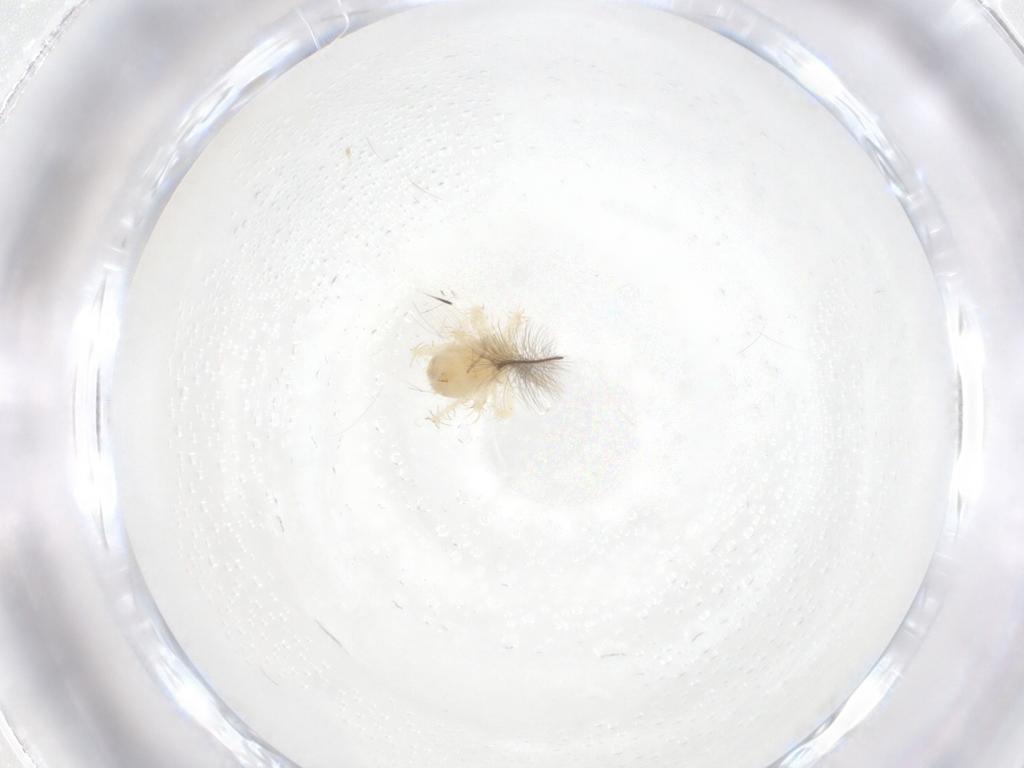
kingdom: Animalia
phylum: Arthropoda
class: Arachnida
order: Trombidiformes
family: Anystidae
